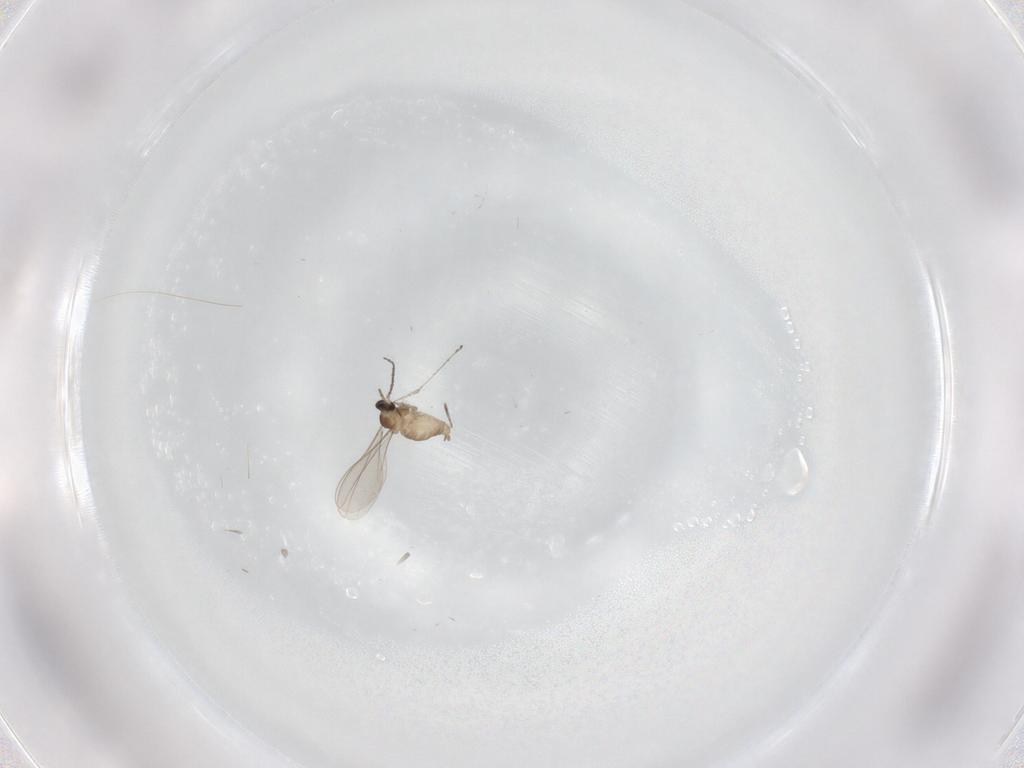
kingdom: Animalia
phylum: Arthropoda
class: Insecta
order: Diptera
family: Cecidomyiidae
